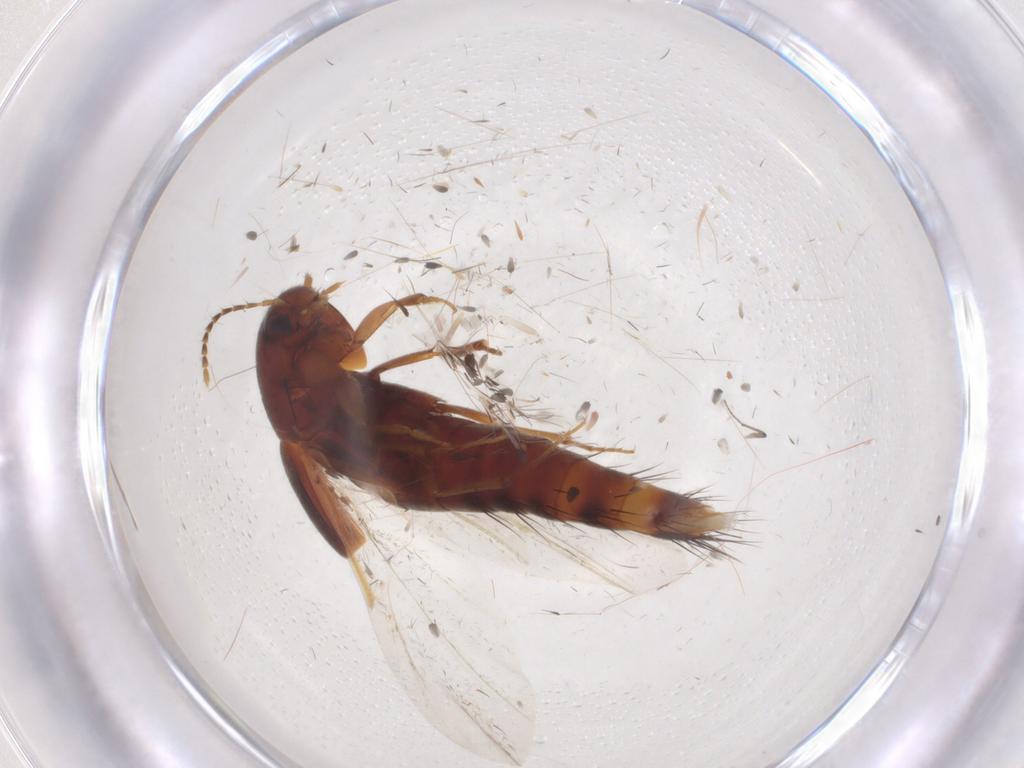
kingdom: Animalia
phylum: Arthropoda
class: Insecta
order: Coleoptera
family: Staphylinidae
